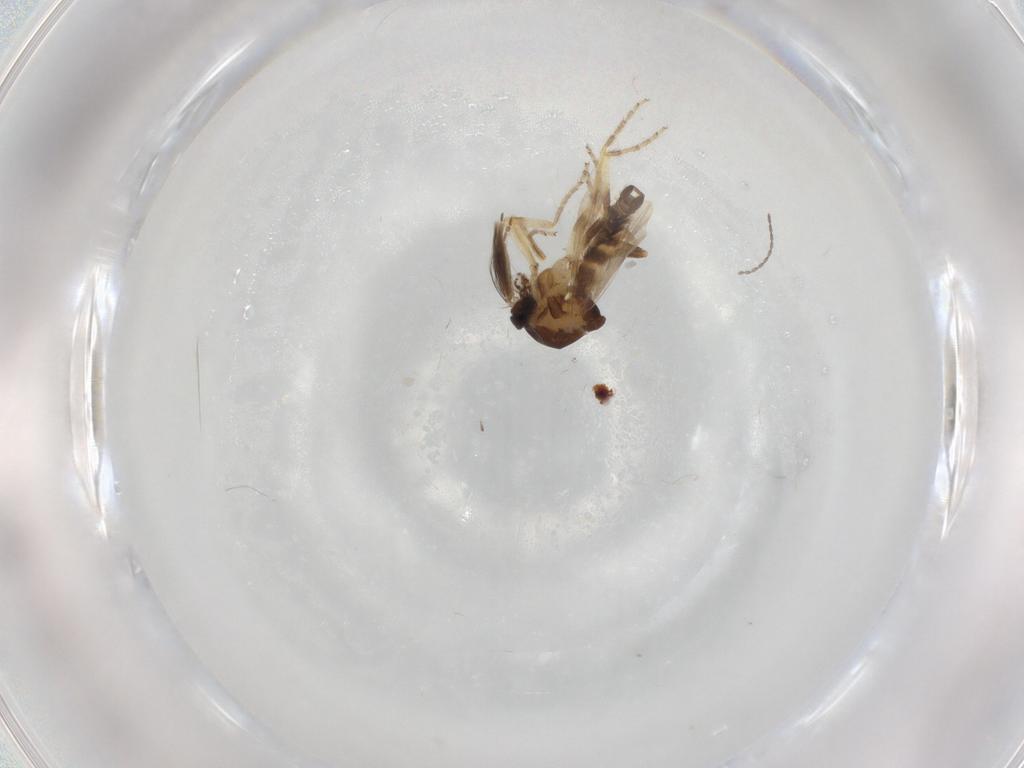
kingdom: Animalia
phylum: Arthropoda
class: Insecta
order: Diptera
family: Ceratopogonidae
